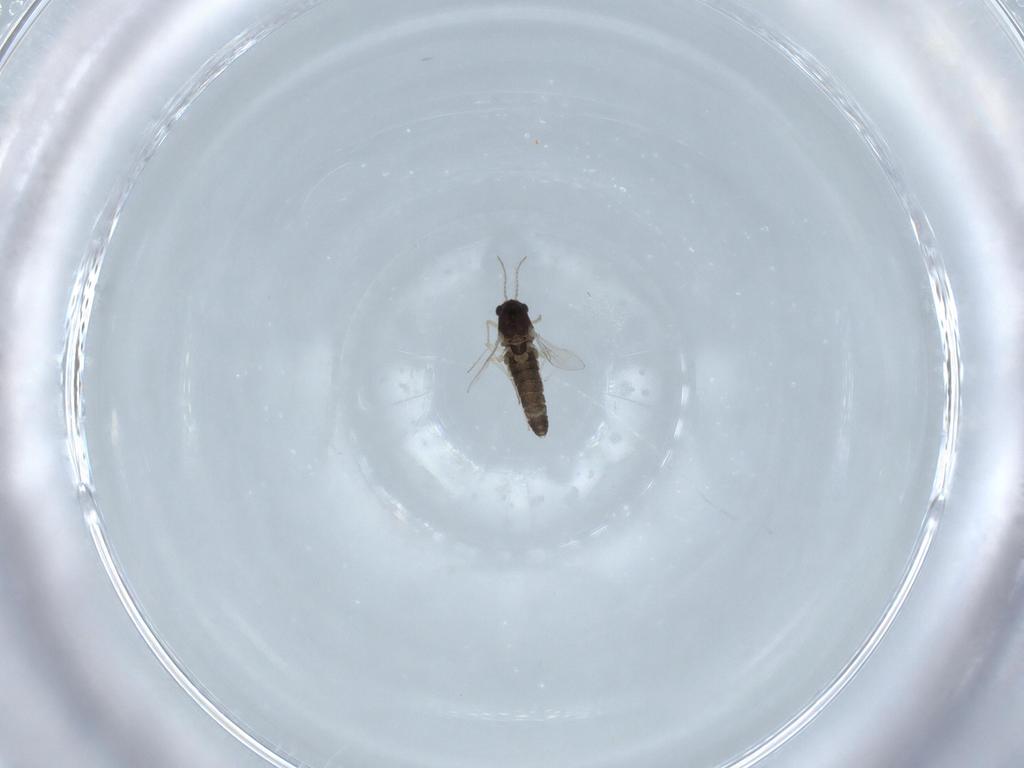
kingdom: Animalia
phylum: Arthropoda
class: Insecta
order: Diptera
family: Chironomidae
